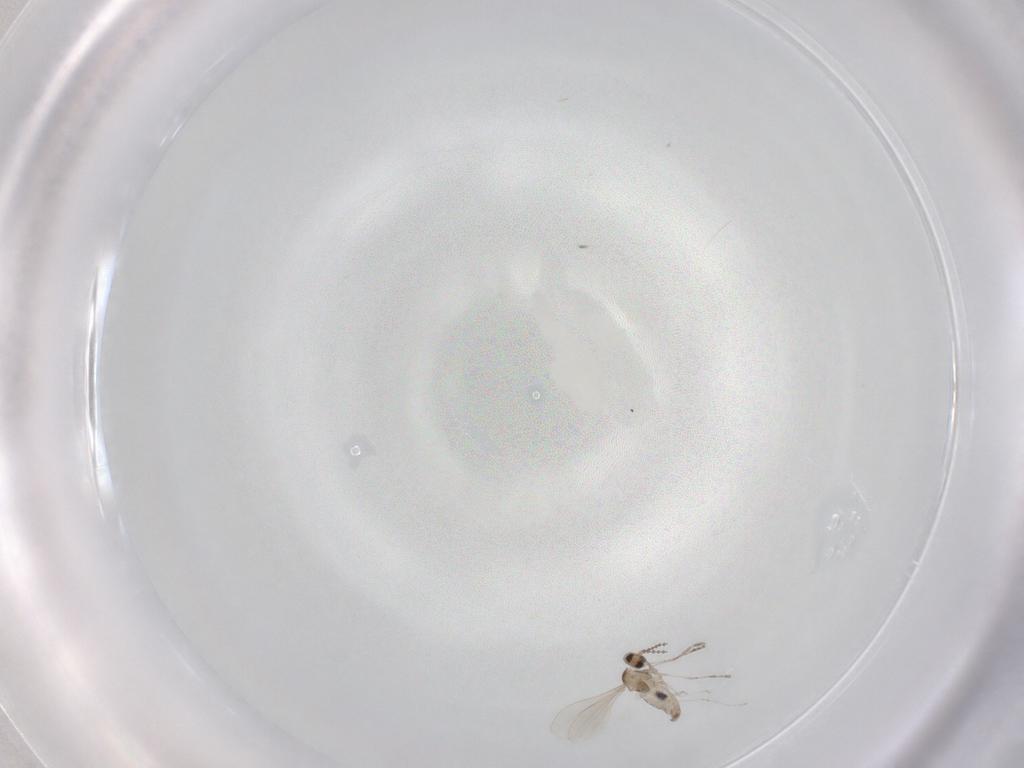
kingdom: Animalia
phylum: Arthropoda
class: Insecta
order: Diptera
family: Cecidomyiidae
